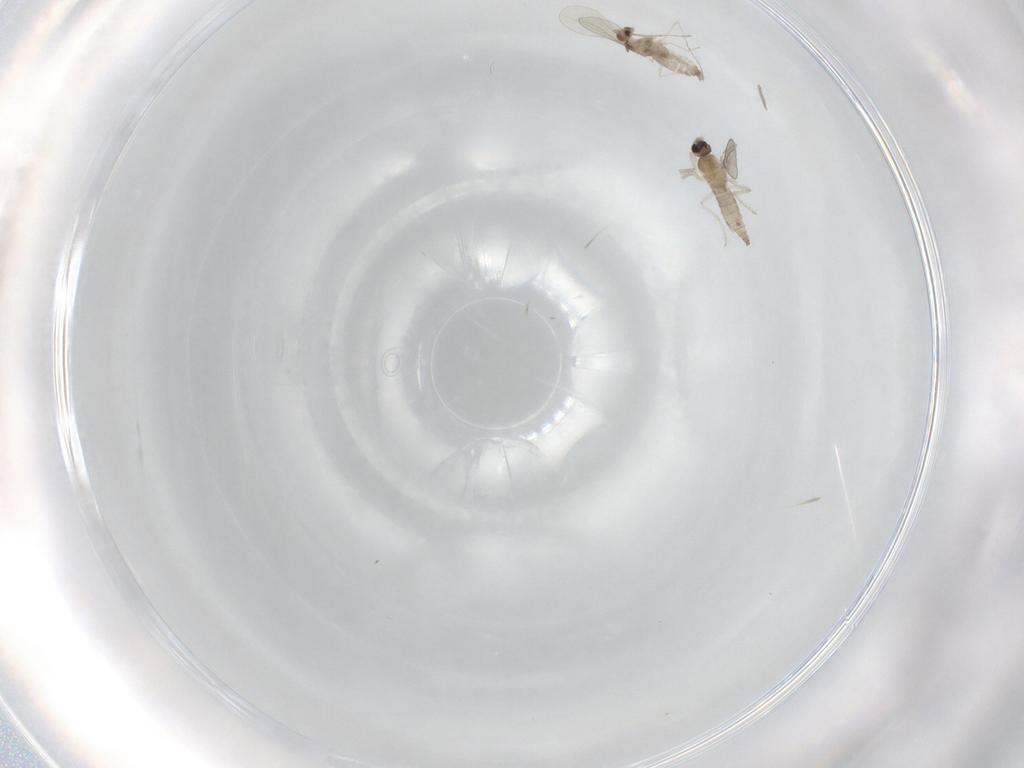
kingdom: Animalia
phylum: Arthropoda
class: Insecta
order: Diptera
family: Cecidomyiidae
